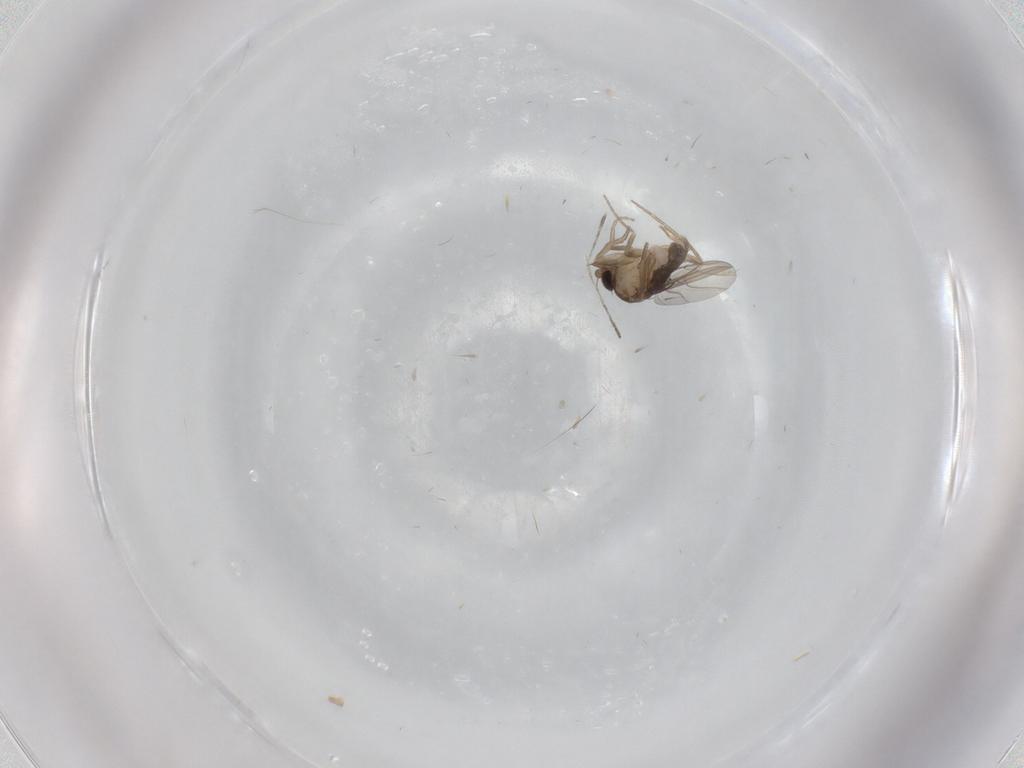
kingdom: Animalia
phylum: Arthropoda
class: Insecta
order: Diptera
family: Phoridae
